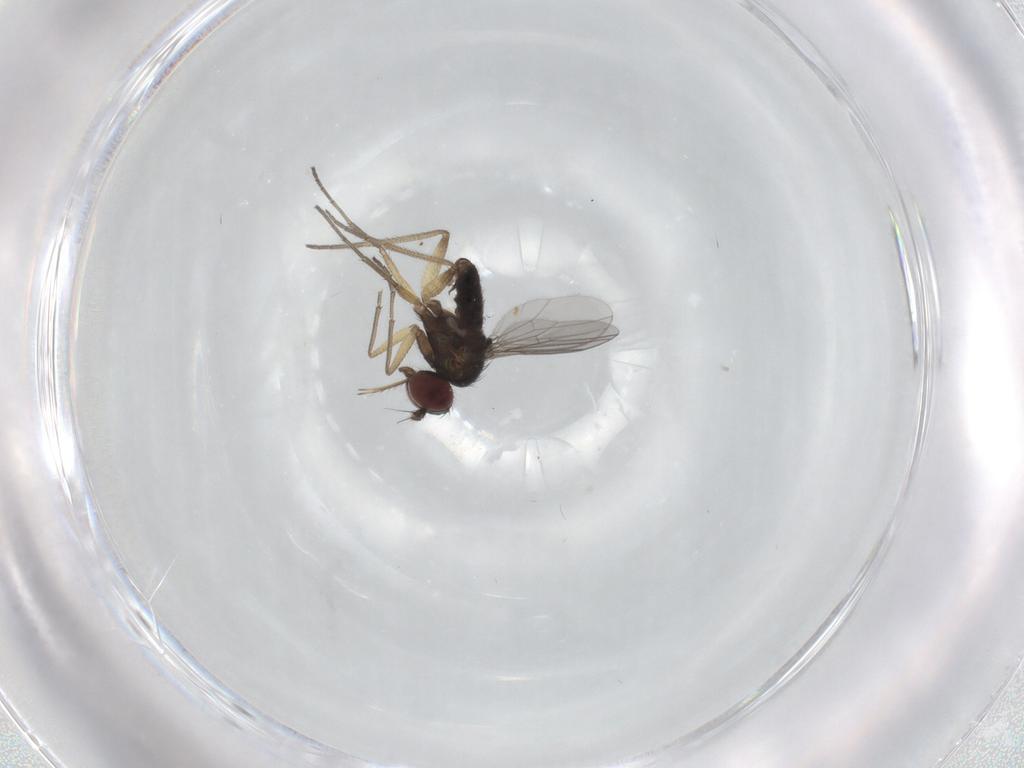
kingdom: Animalia
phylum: Arthropoda
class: Insecta
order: Diptera
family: Dolichopodidae
